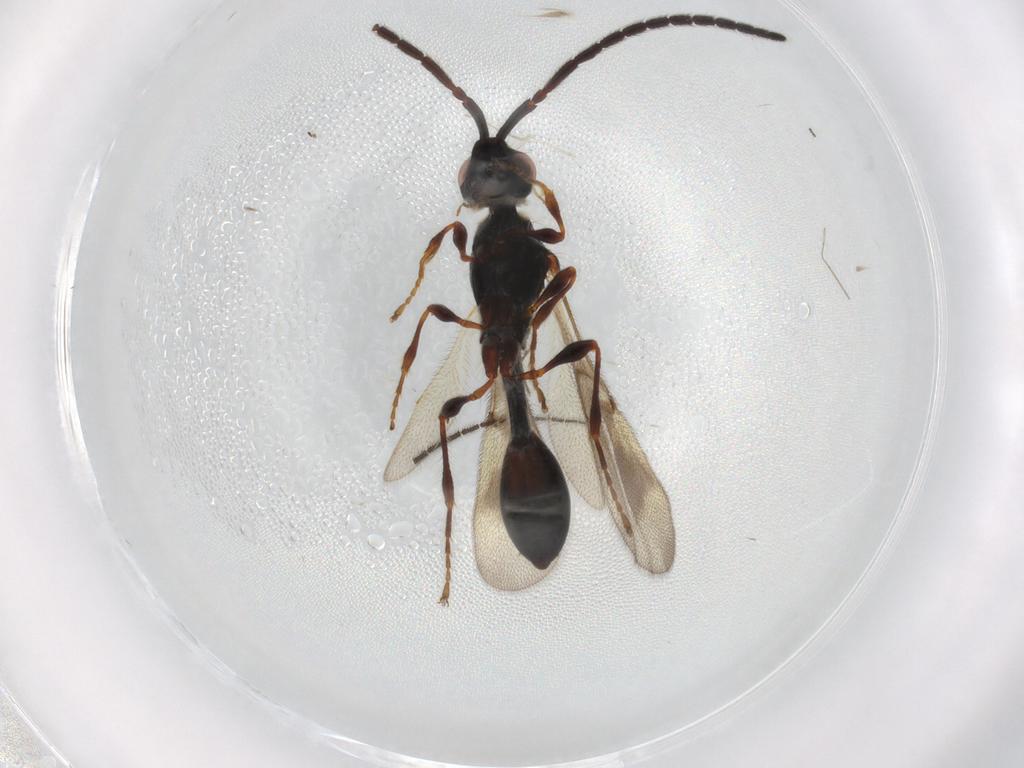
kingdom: Animalia
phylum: Arthropoda
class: Insecta
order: Hymenoptera
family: Diapriidae
